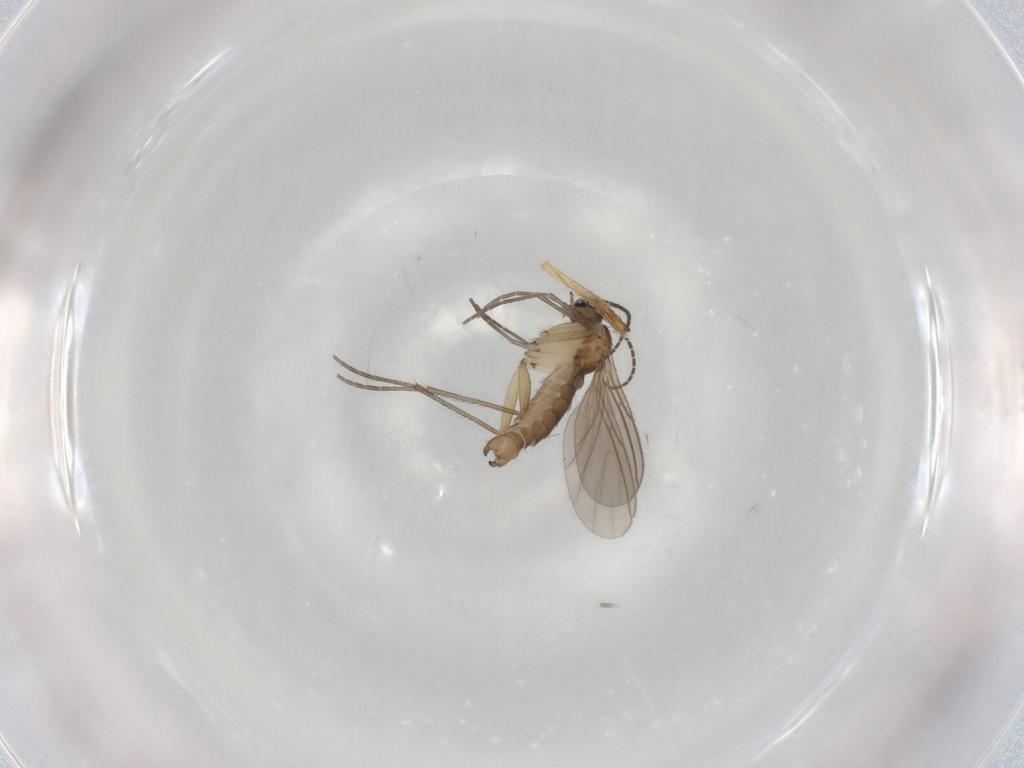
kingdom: Animalia
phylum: Arthropoda
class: Insecta
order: Diptera
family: Sciaridae
